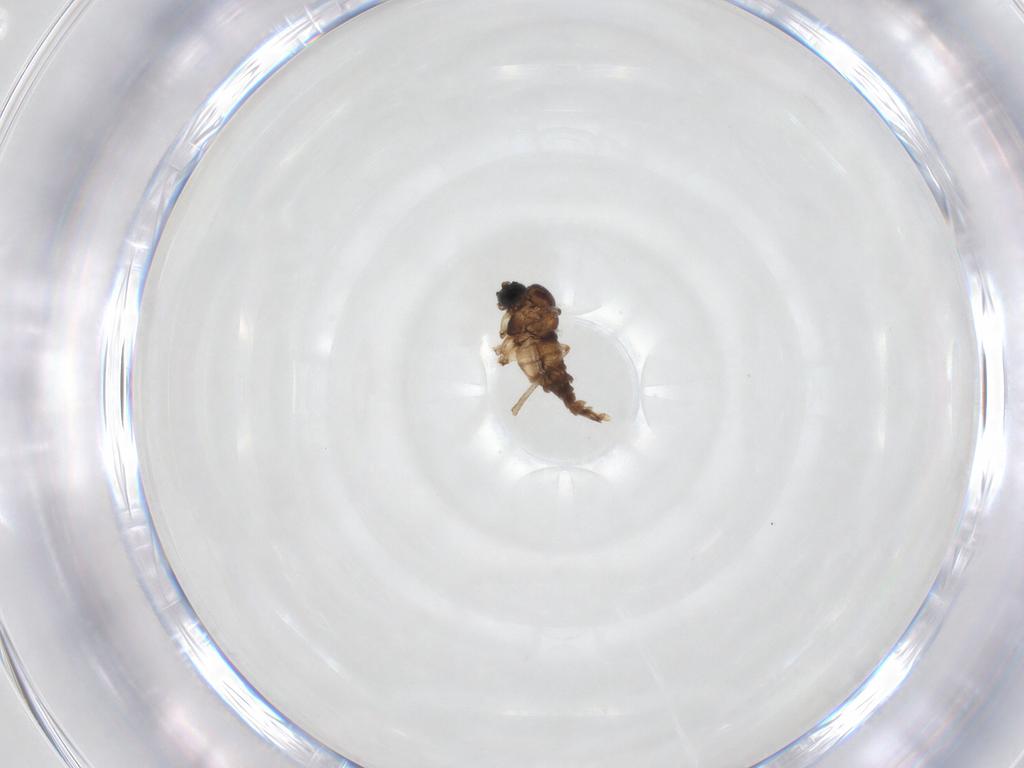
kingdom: Animalia
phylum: Arthropoda
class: Insecta
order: Diptera
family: Sciaridae
